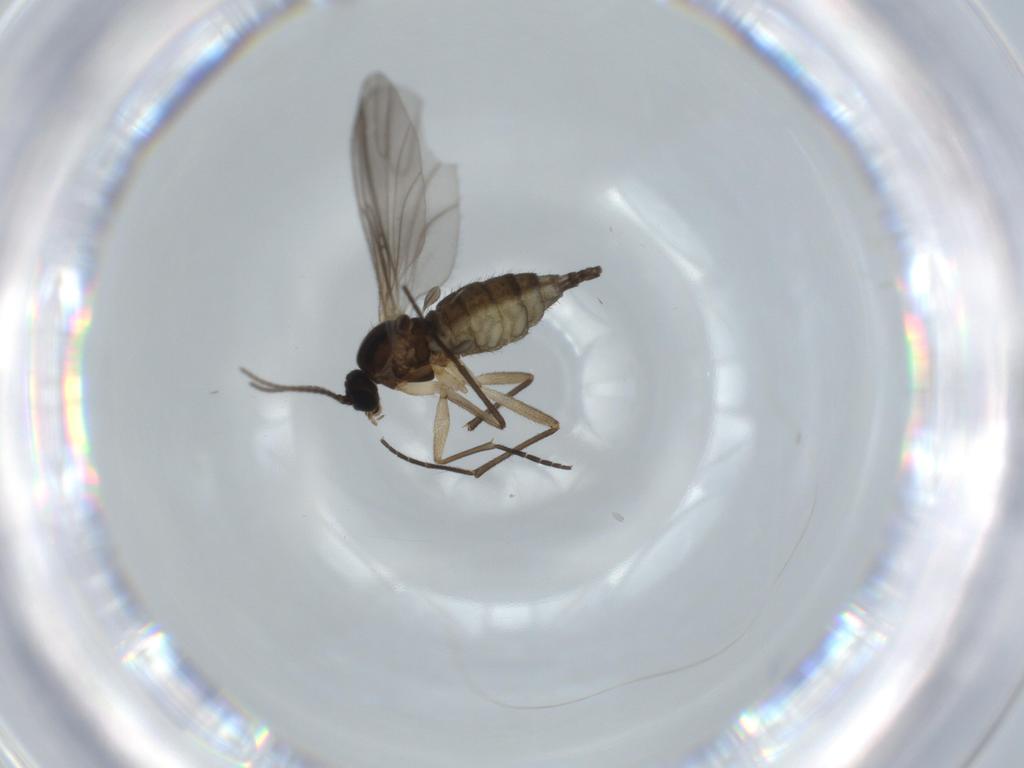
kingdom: Animalia
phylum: Arthropoda
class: Insecta
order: Diptera
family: Sciaridae
